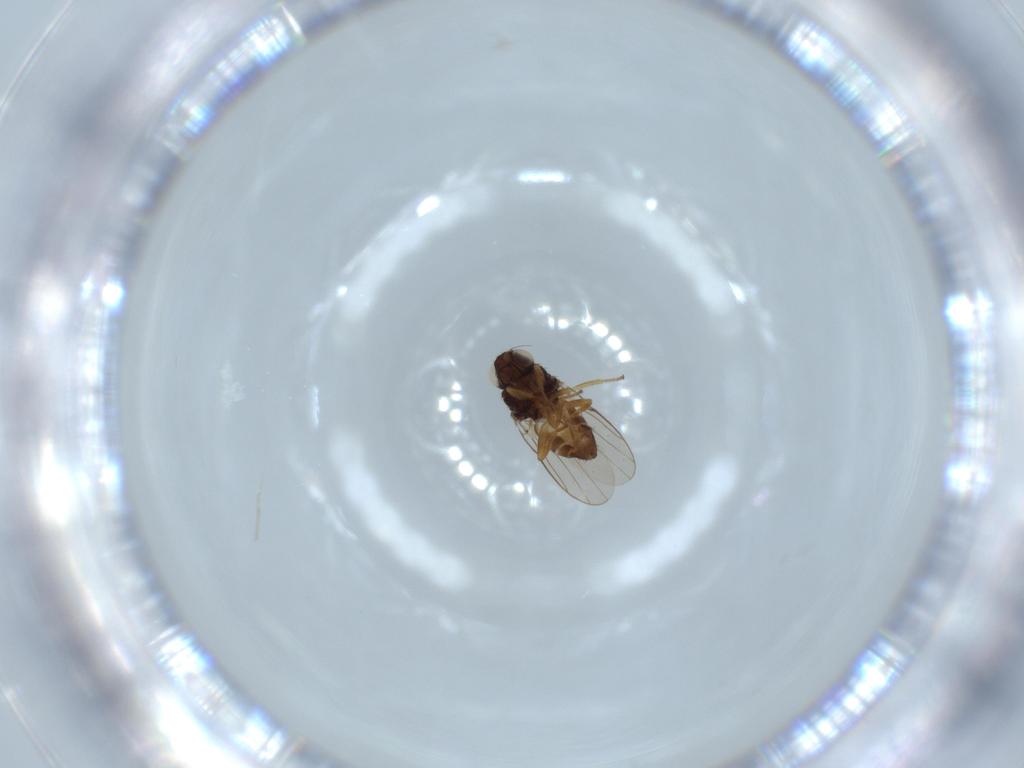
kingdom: Animalia
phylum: Arthropoda
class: Insecta
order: Diptera
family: Chloropidae
